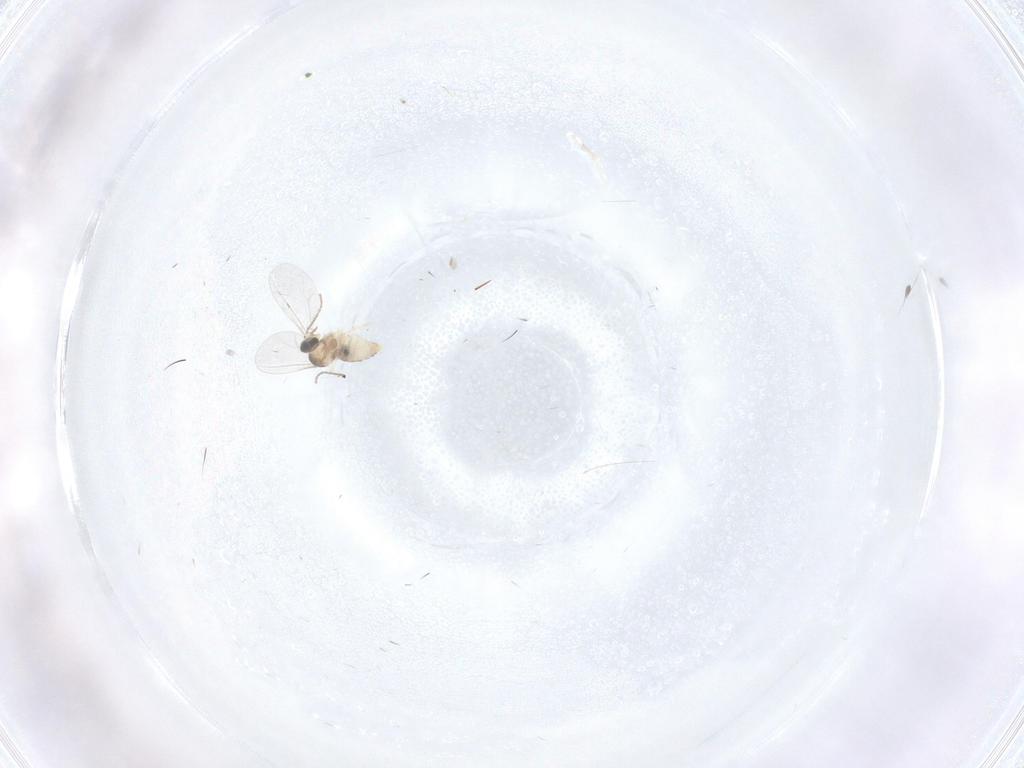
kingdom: Animalia
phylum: Arthropoda
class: Insecta
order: Diptera
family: Cecidomyiidae
